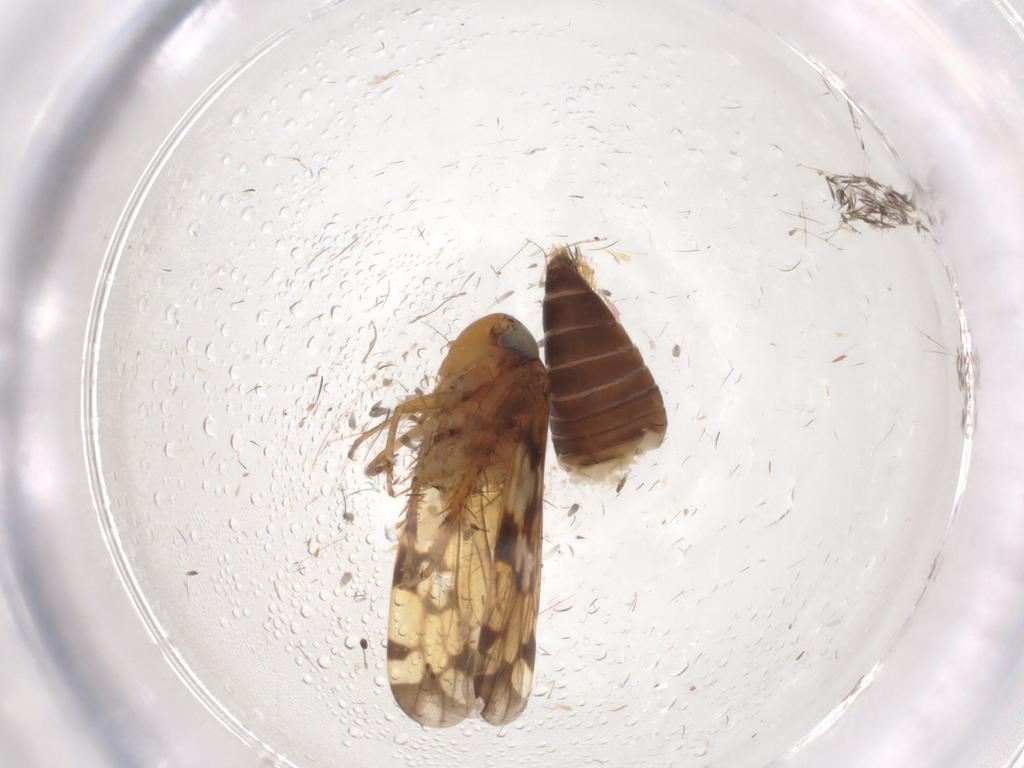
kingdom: Animalia
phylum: Arthropoda
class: Insecta
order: Hemiptera
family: Cicadellidae
